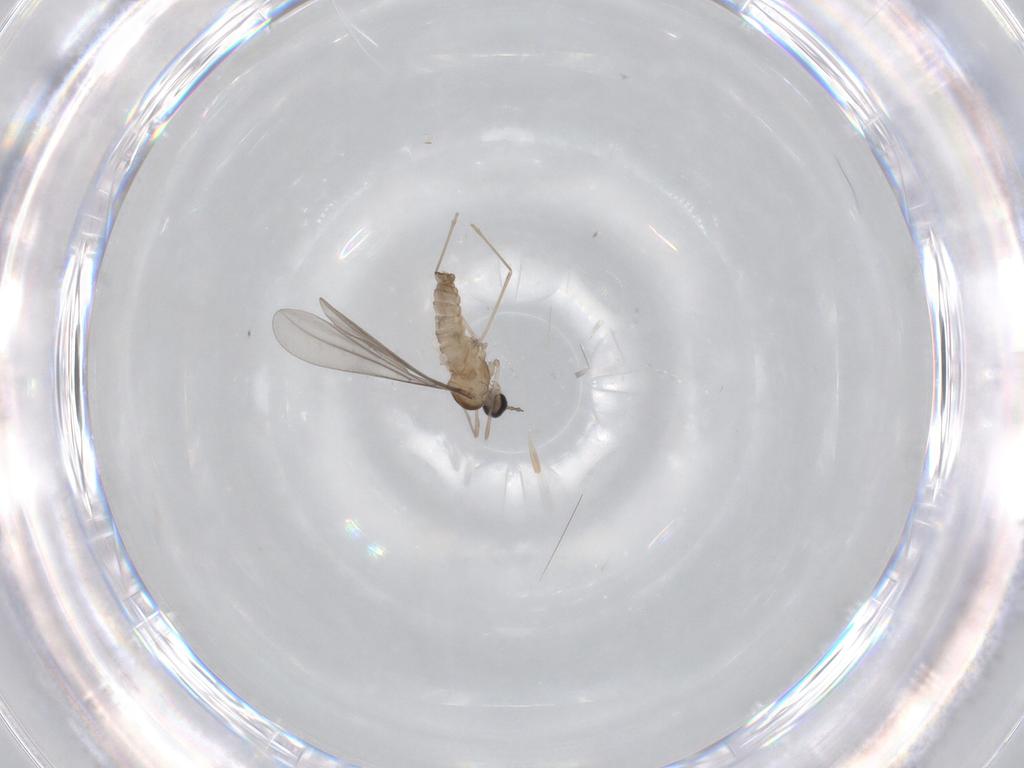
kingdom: Animalia
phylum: Arthropoda
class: Insecta
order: Diptera
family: Cecidomyiidae
